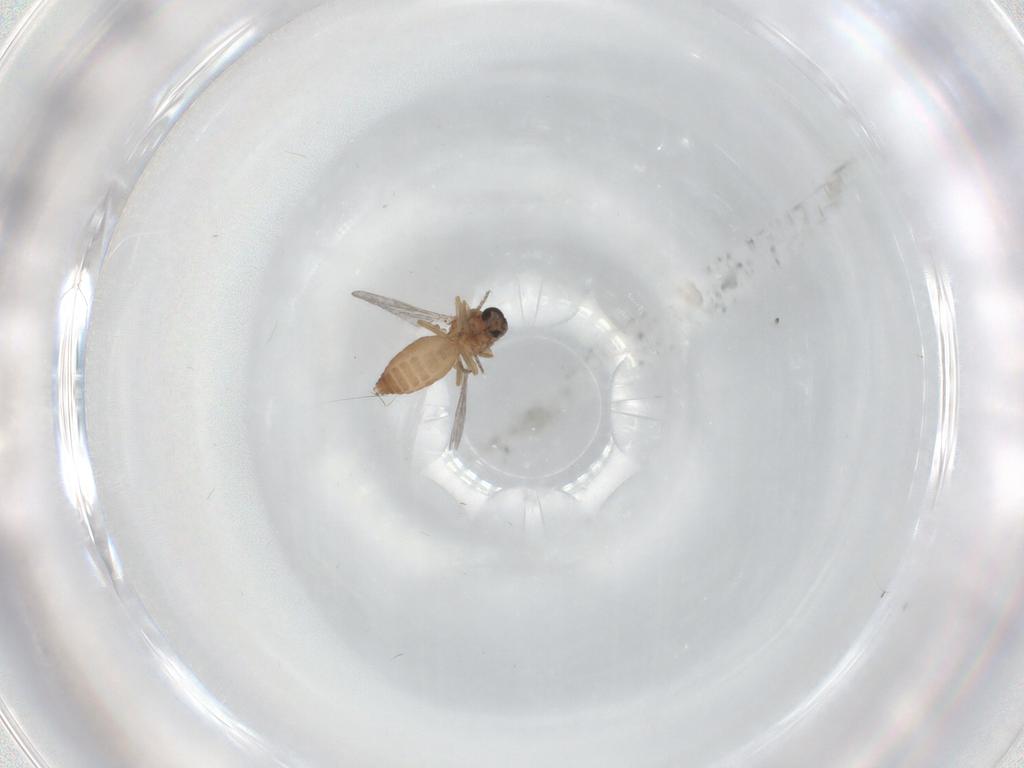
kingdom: Animalia
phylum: Arthropoda
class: Insecta
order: Diptera
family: Ceratopogonidae
